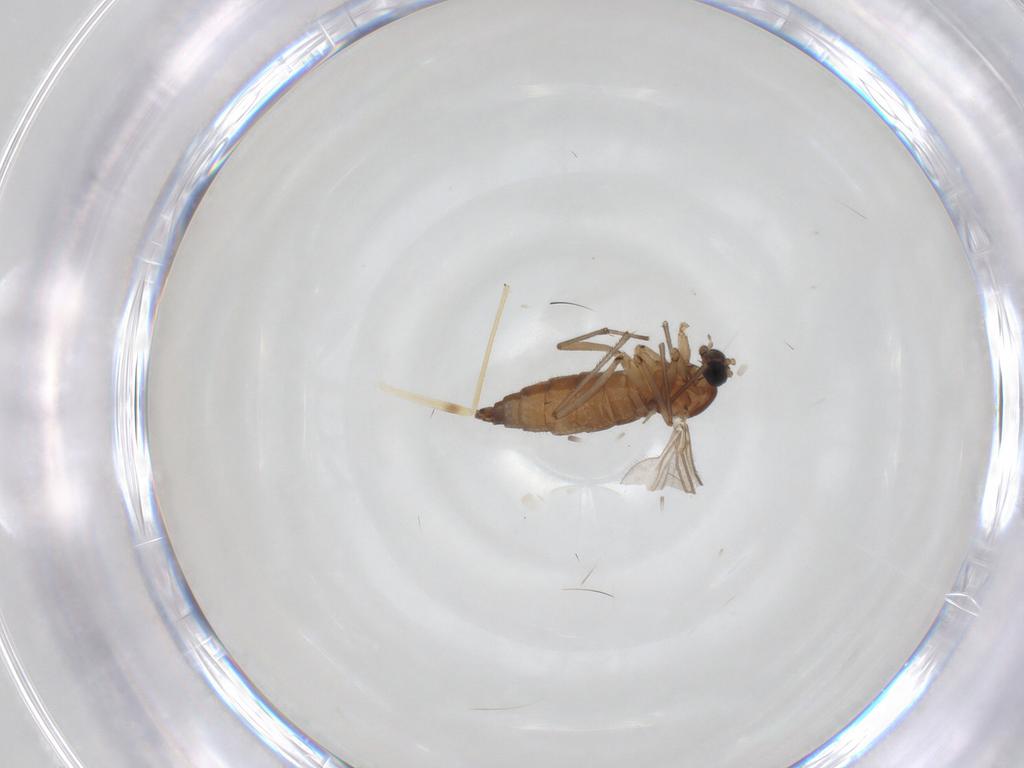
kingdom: Animalia
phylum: Arthropoda
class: Insecta
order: Diptera
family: Sciaridae
